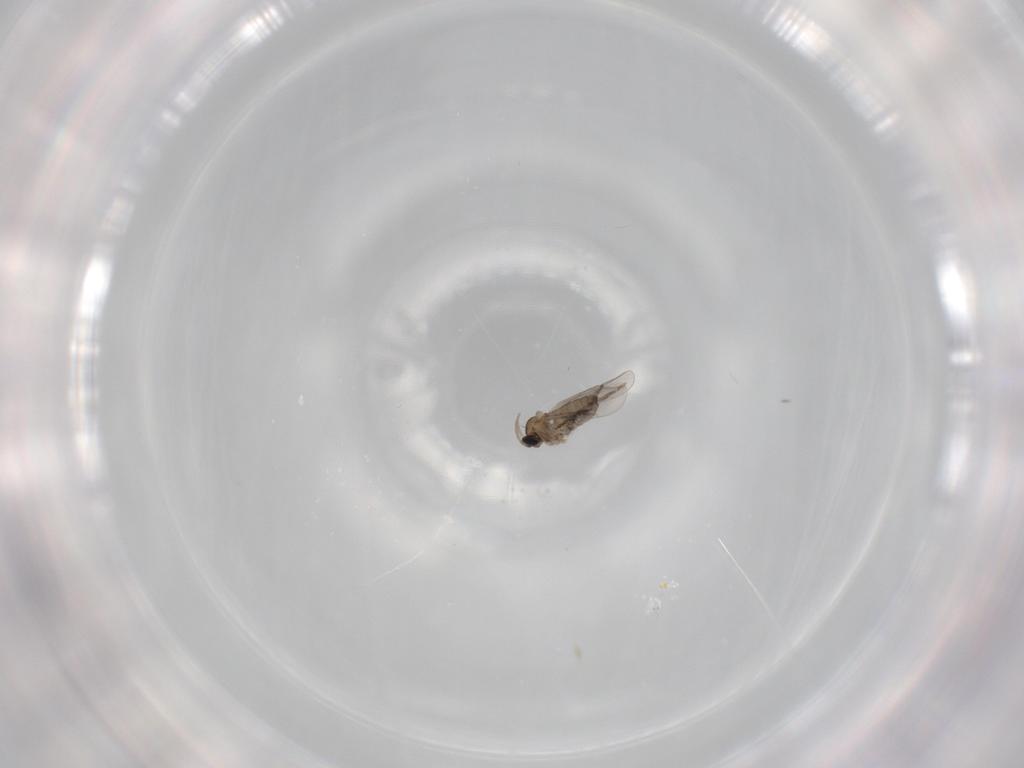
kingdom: Animalia
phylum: Arthropoda
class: Insecta
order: Diptera
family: Cecidomyiidae
